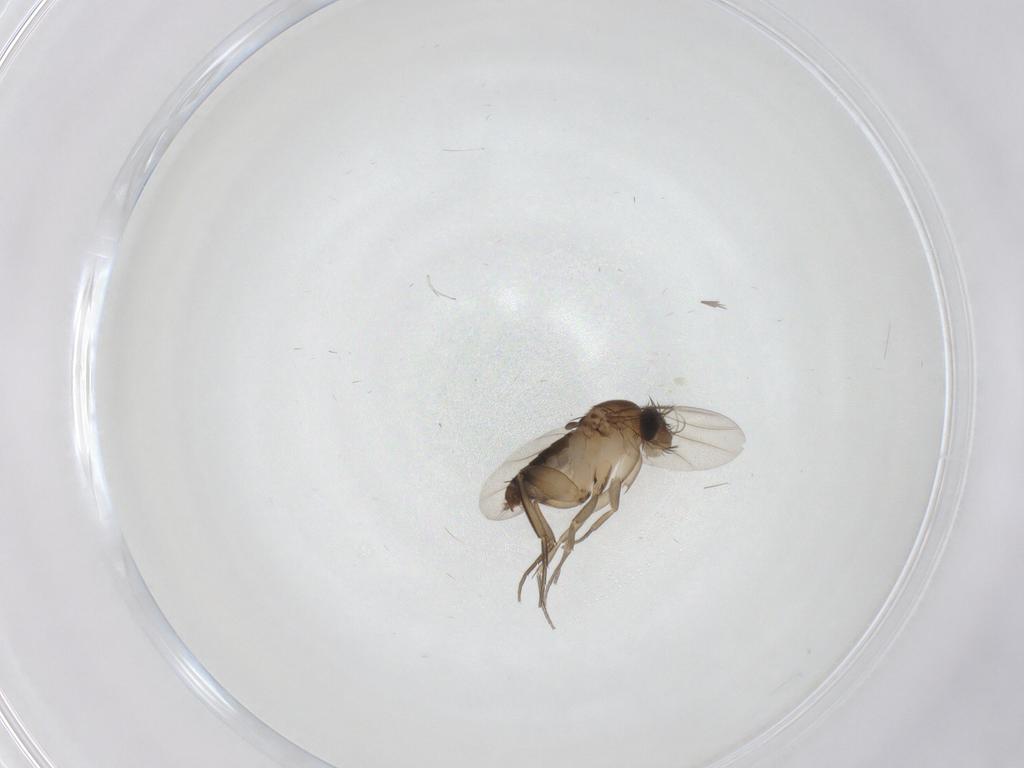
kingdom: Animalia
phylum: Arthropoda
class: Insecta
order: Diptera
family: Phoridae
